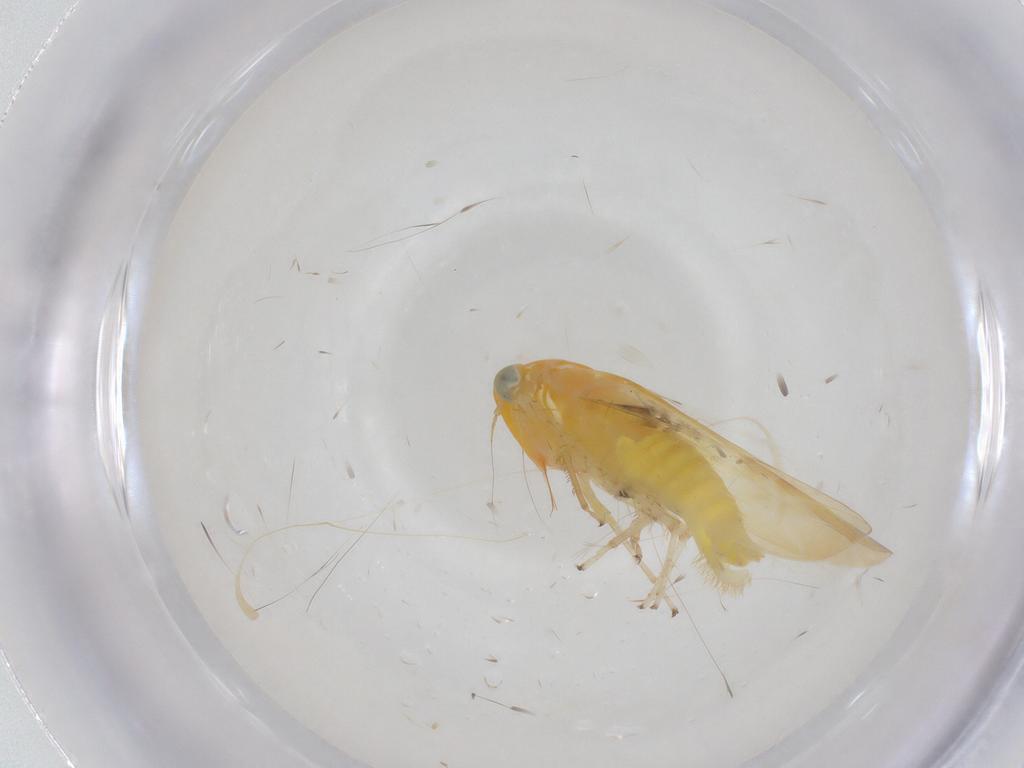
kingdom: Animalia
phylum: Arthropoda
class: Insecta
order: Hemiptera
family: Cicadellidae
